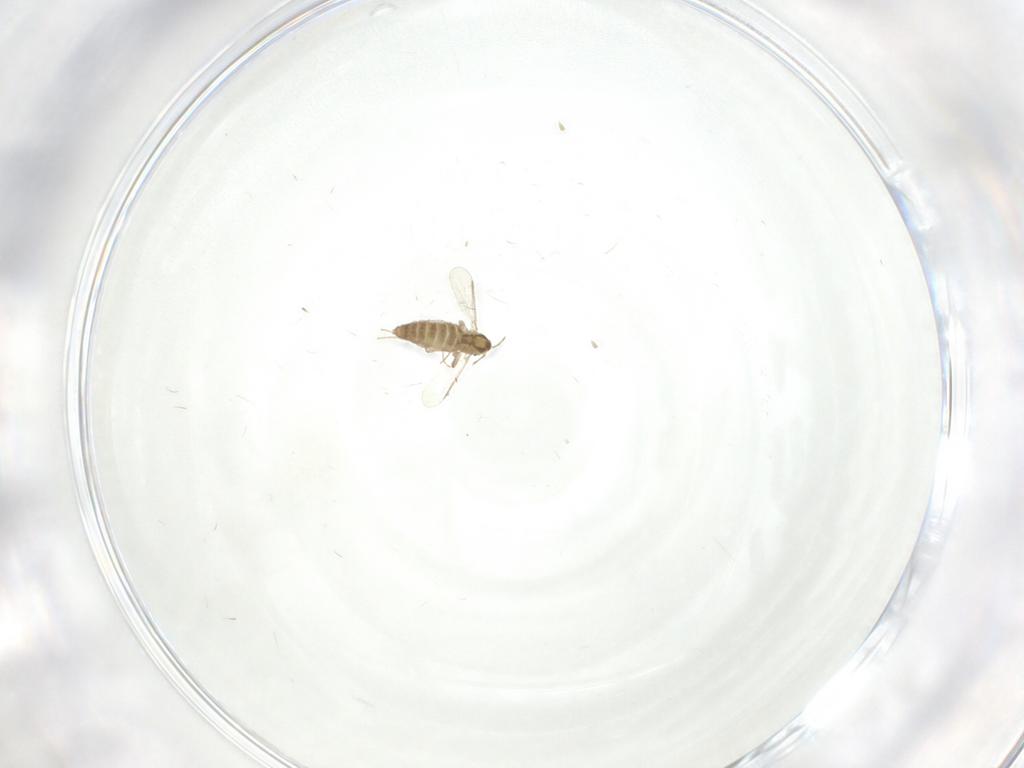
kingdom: Animalia
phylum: Arthropoda
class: Insecta
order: Diptera
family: Chironomidae
